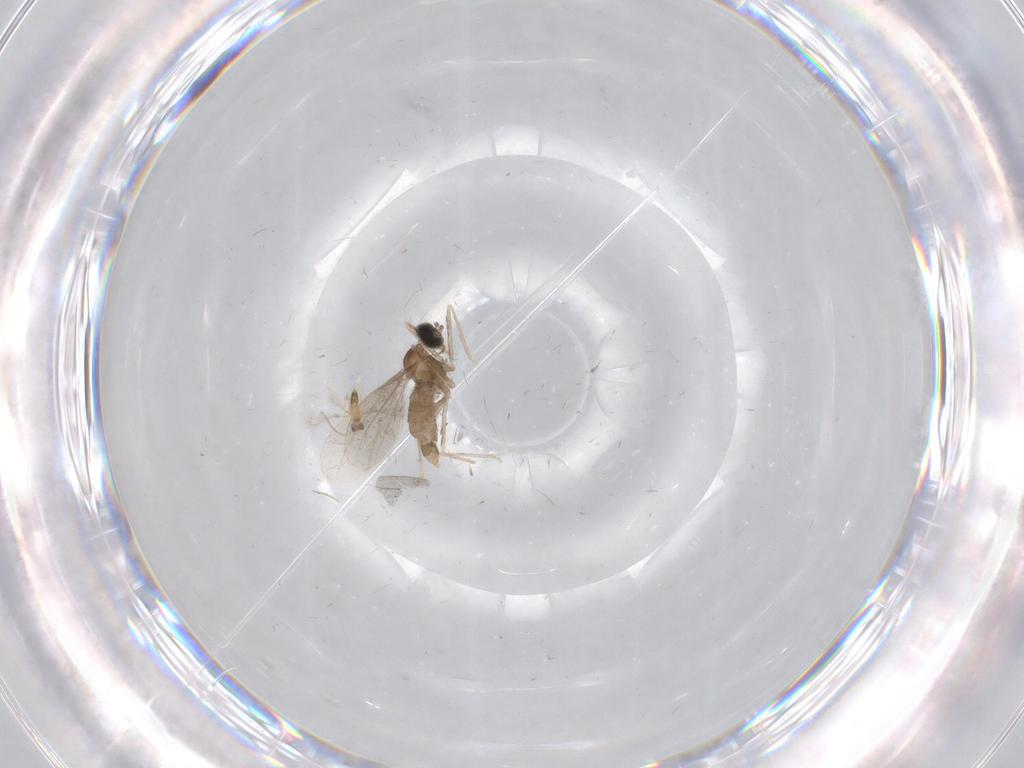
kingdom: Animalia
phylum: Arthropoda
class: Insecta
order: Diptera
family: Cecidomyiidae
